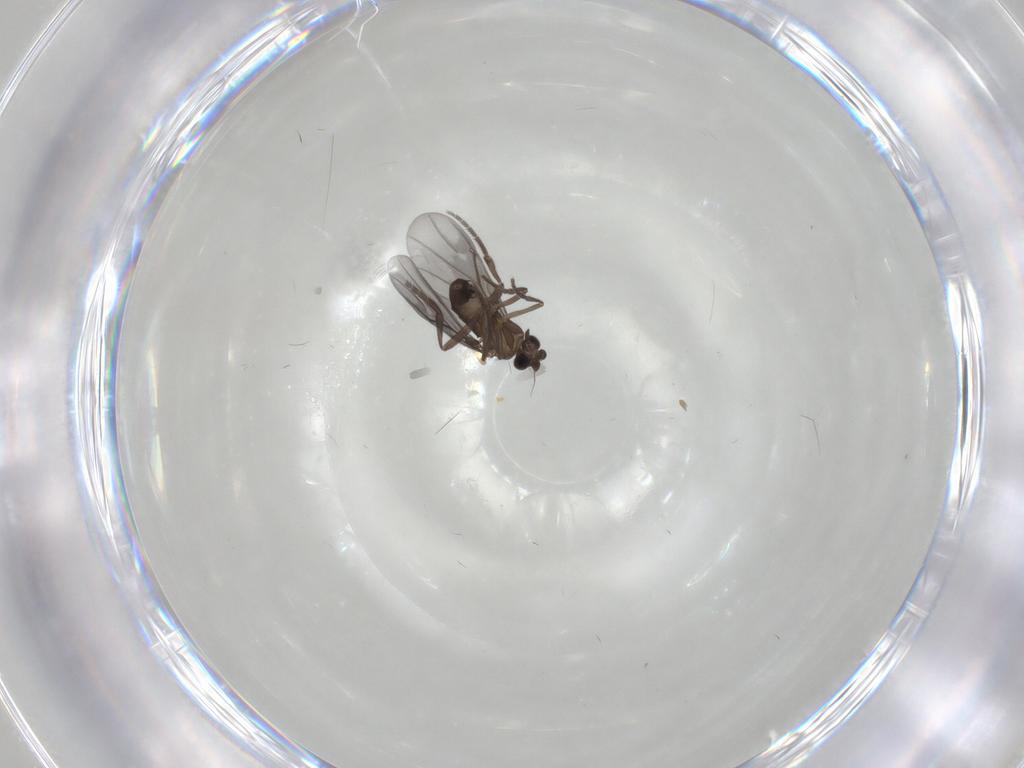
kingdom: Animalia
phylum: Arthropoda
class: Insecta
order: Diptera
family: Phoridae
